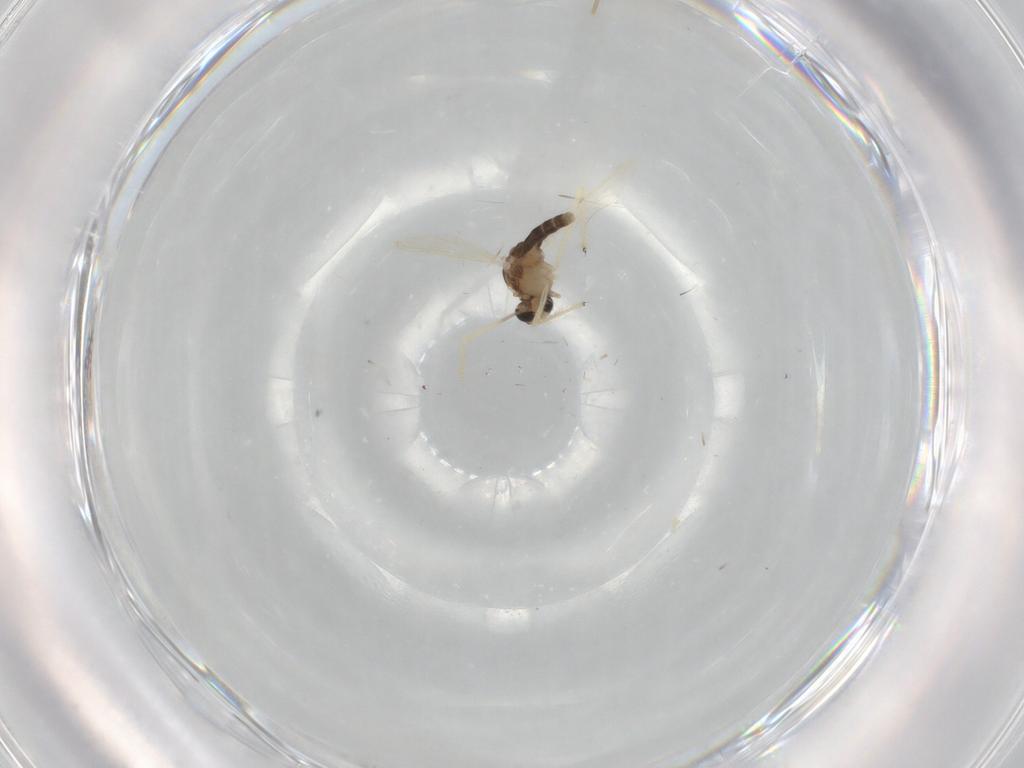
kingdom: Animalia
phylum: Arthropoda
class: Insecta
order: Diptera
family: Chironomidae
